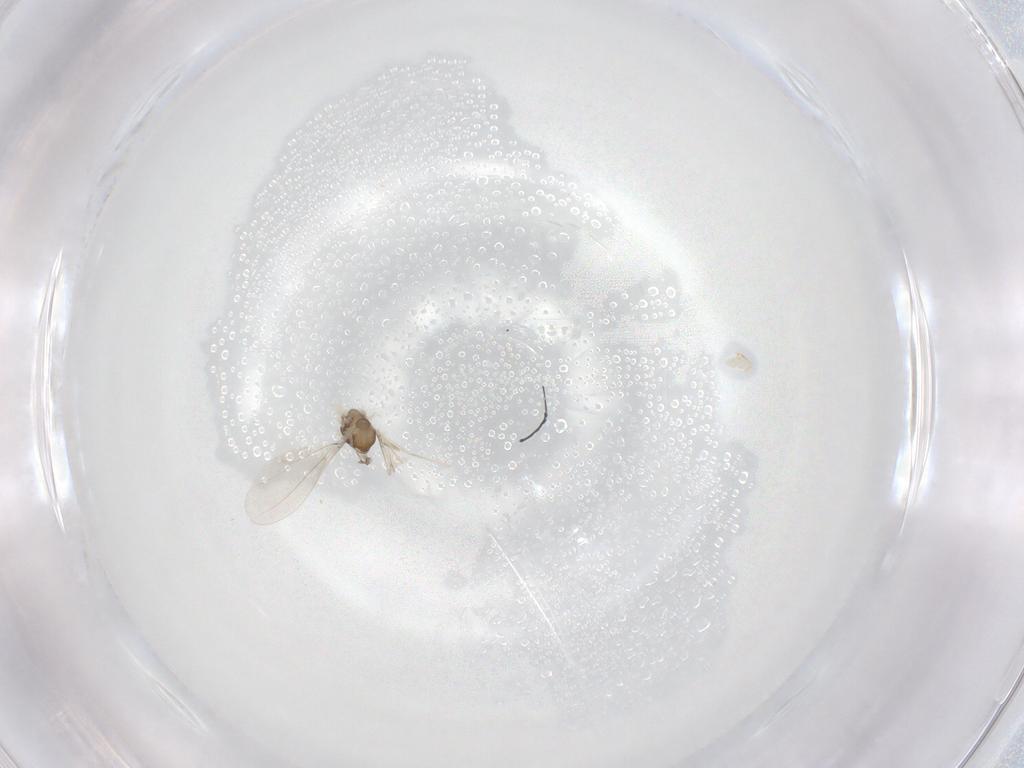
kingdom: Animalia
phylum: Arthropoda
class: Insecta
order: Diptera
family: Cecidomyiidae
